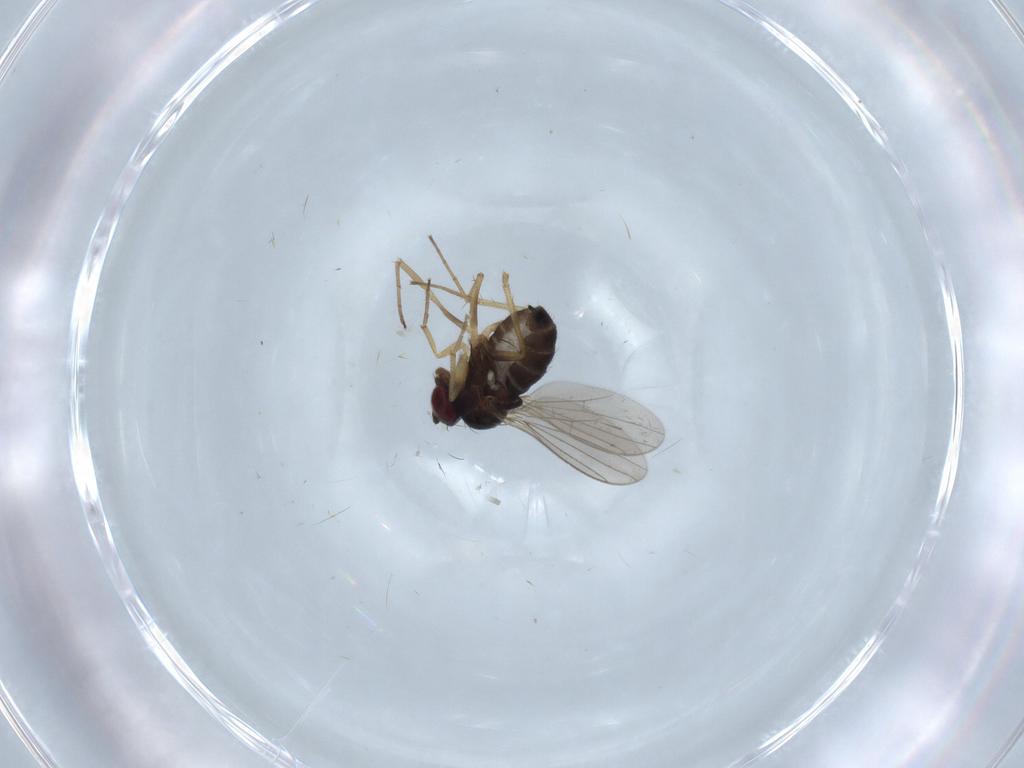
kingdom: Animalia
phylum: Arthropoda
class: Insecta
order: Diptera
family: Dolichopodidae
